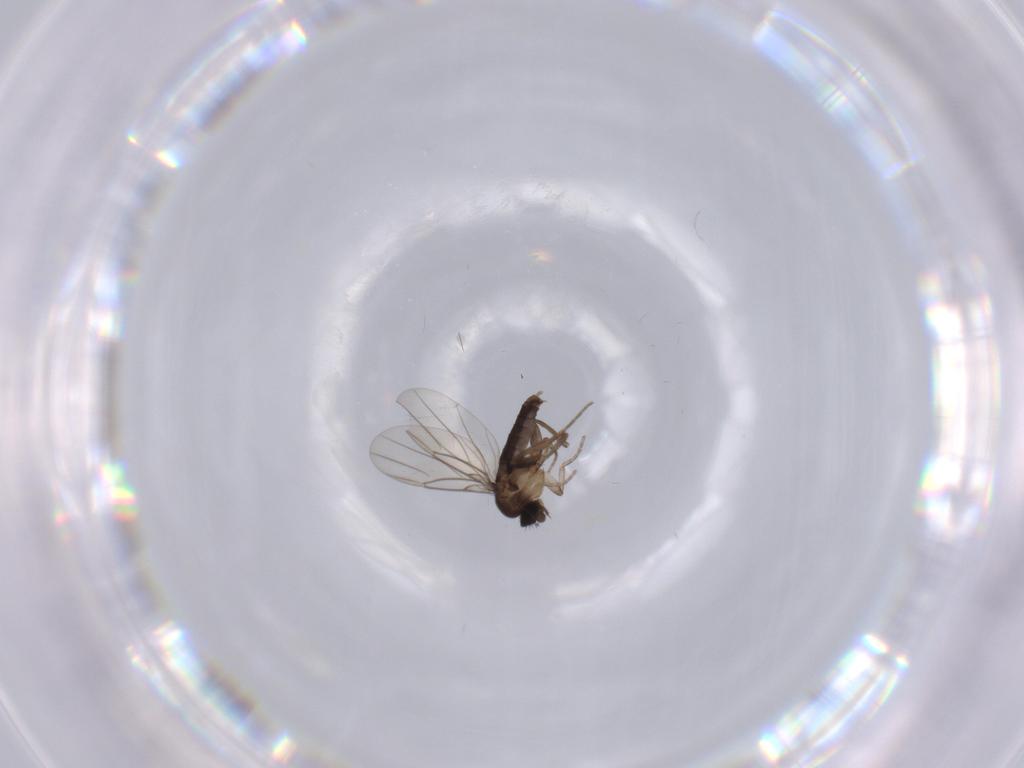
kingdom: Animalia
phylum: Arthropoda
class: Insecta
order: Diptera
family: Phoridae
